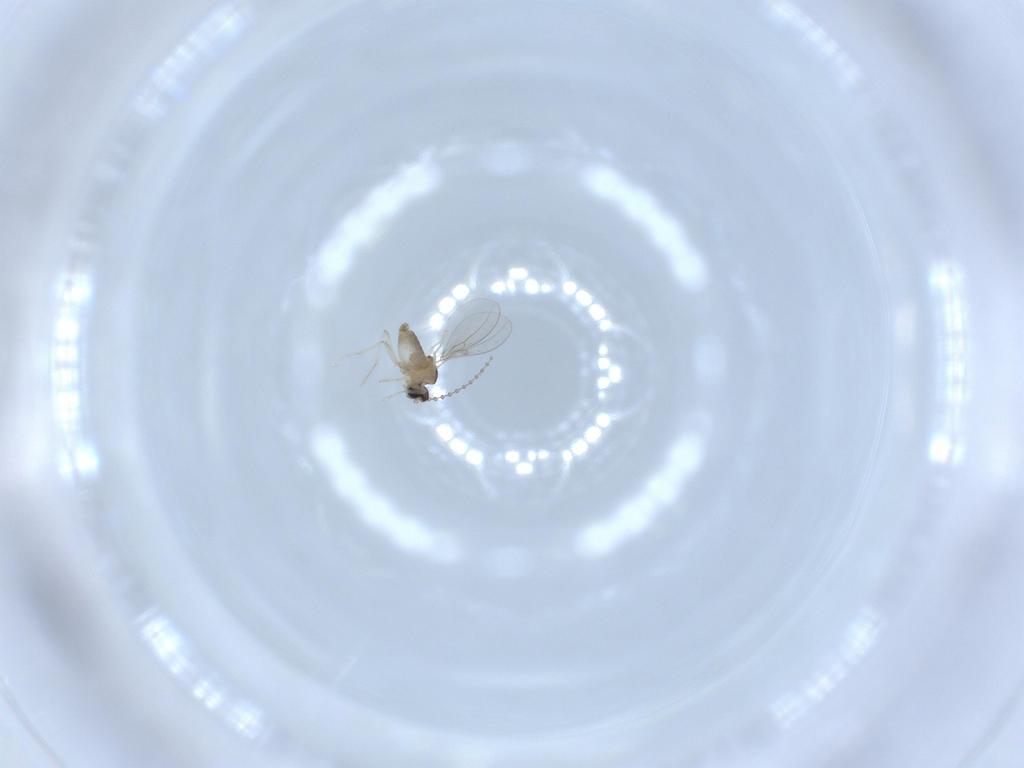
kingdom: Animalia
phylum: Arthropoda
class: Insecta
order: Diptera
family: Cecidomyiidae
